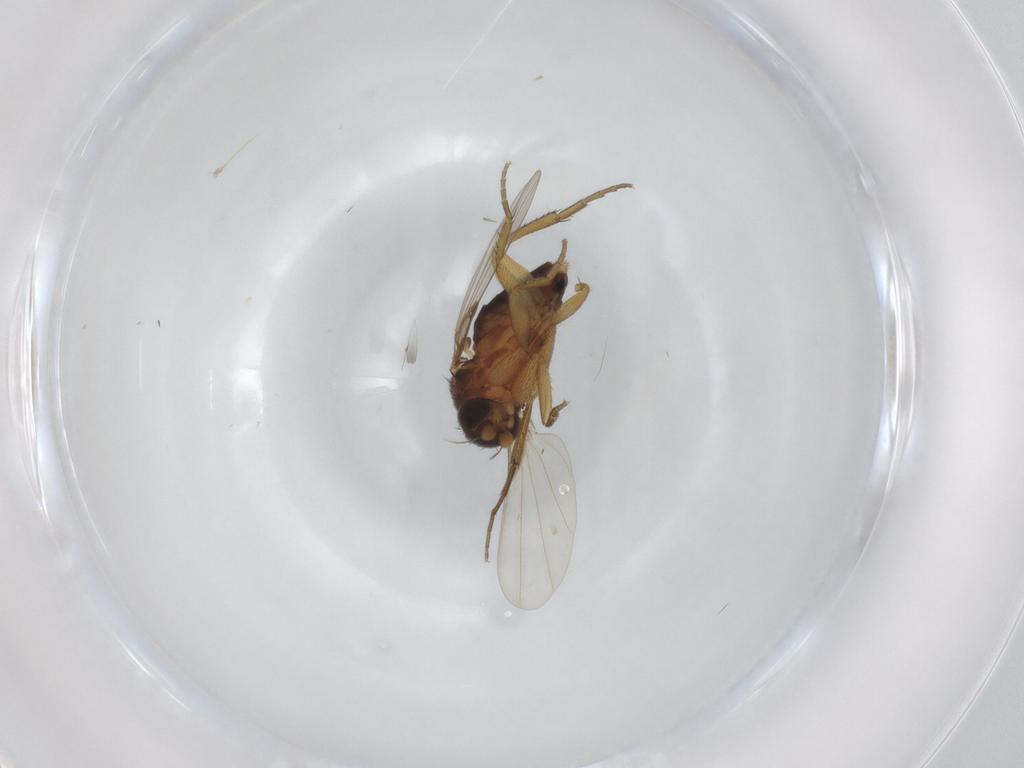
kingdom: Animalia
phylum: Arthropoda
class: Insecta
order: Diptera
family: Phoridae
